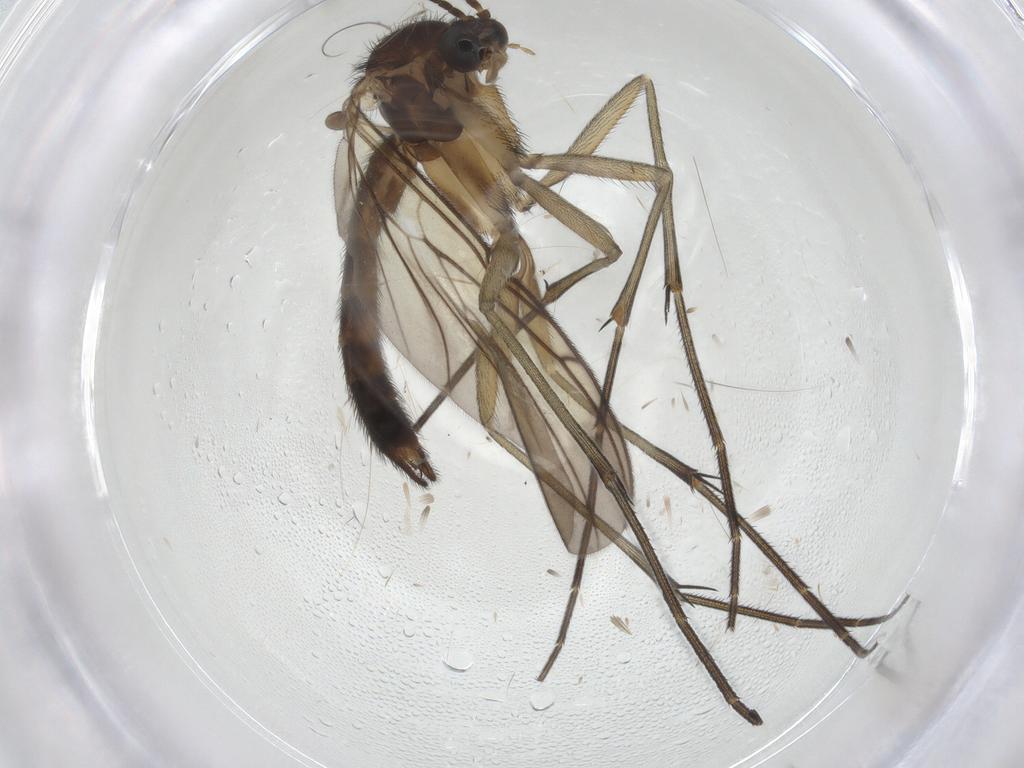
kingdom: Animalia
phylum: Arthropoda
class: Insecta
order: Diptera
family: Keroplatidae
